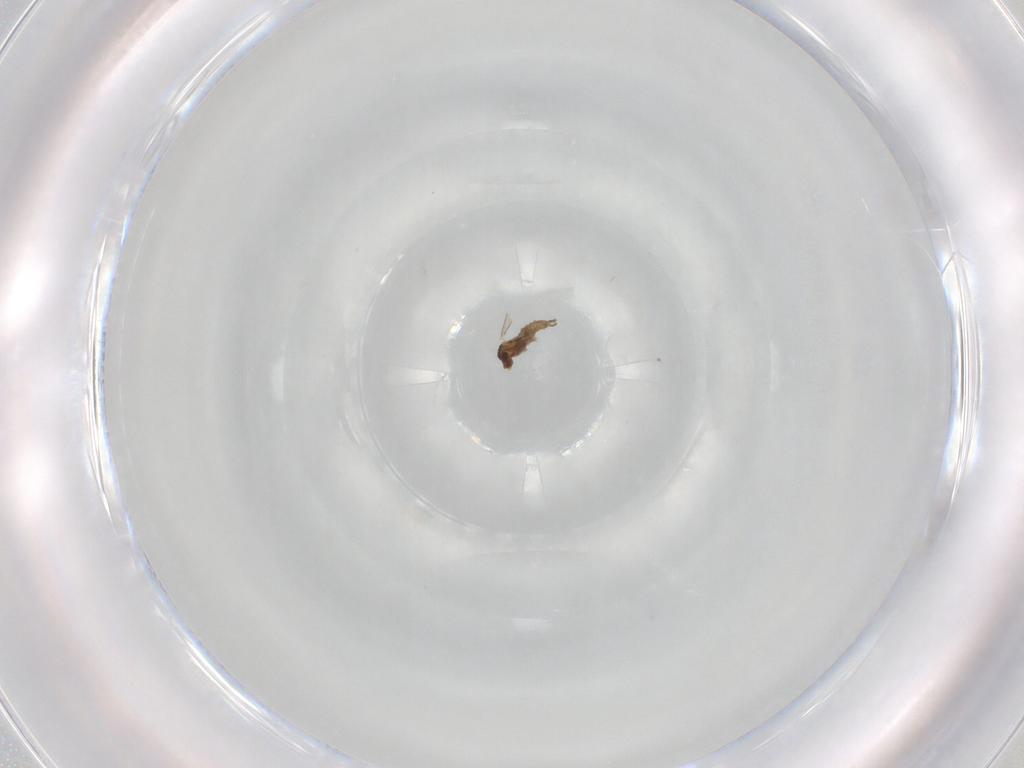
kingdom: Animalia
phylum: Arthropoda
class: Insecta
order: Diptera
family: Syrphidae
